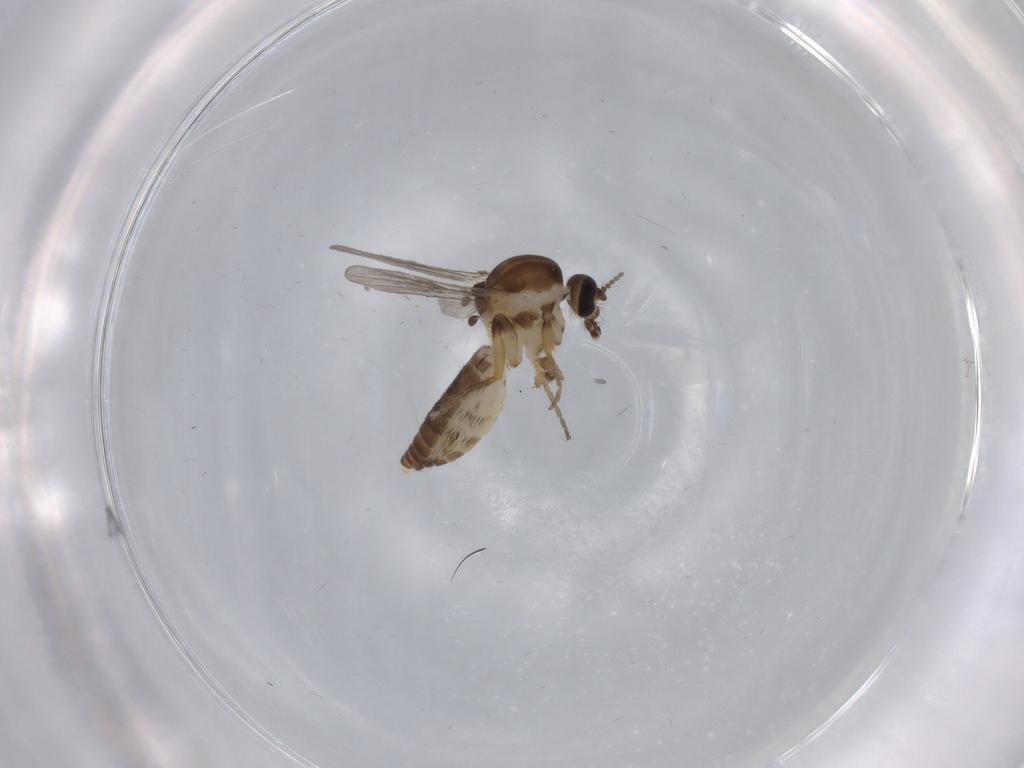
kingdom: Animalia
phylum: Arthropoda
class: Insecta
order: Diptera
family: Ceratopogonidae
